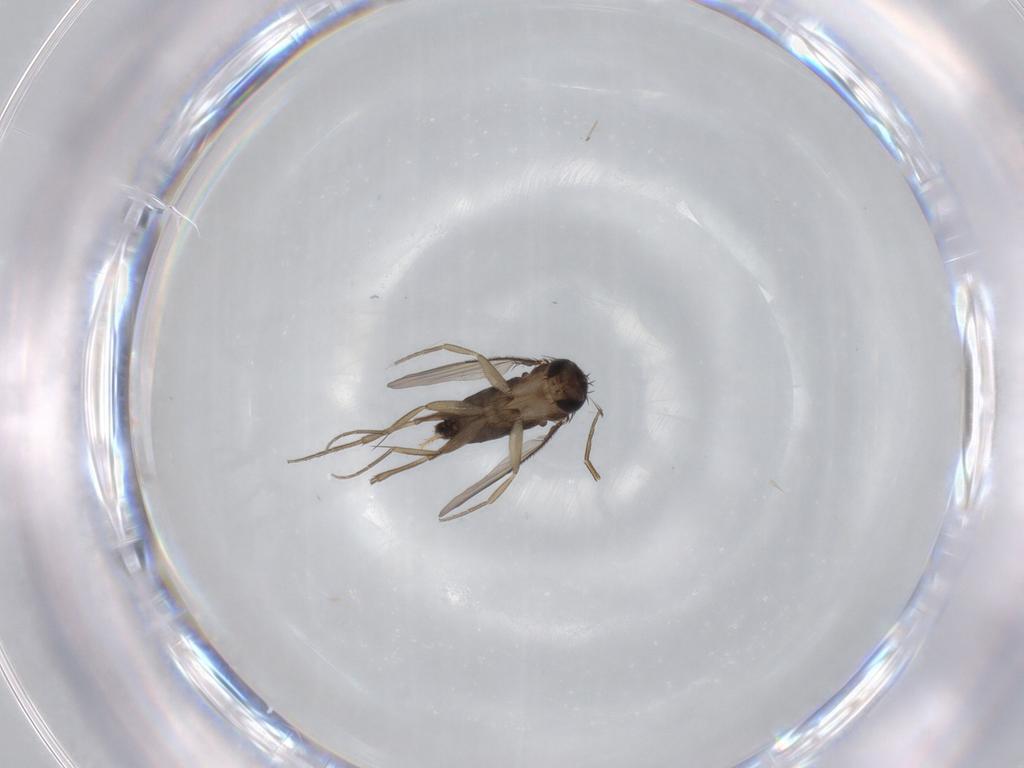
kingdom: Animalia
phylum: Arthropoda
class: Insecta
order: Diptera
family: Phoridae
